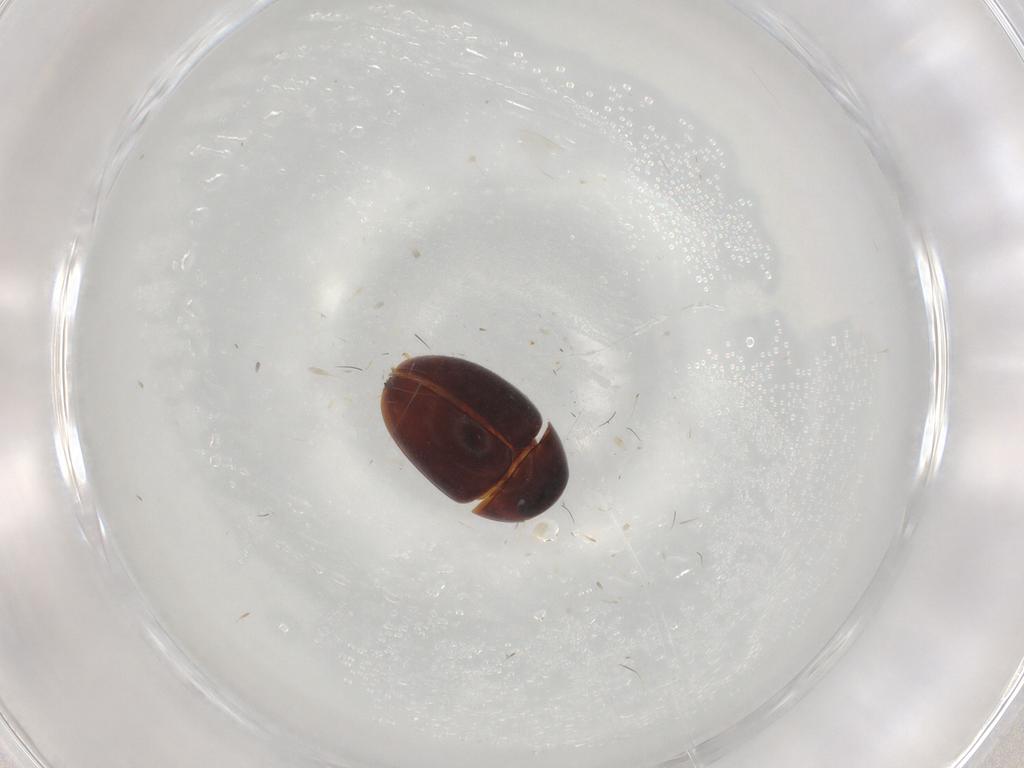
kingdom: Animalia
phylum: Arthropoda
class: Insecta
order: Coleoptera
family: Phalacridae
